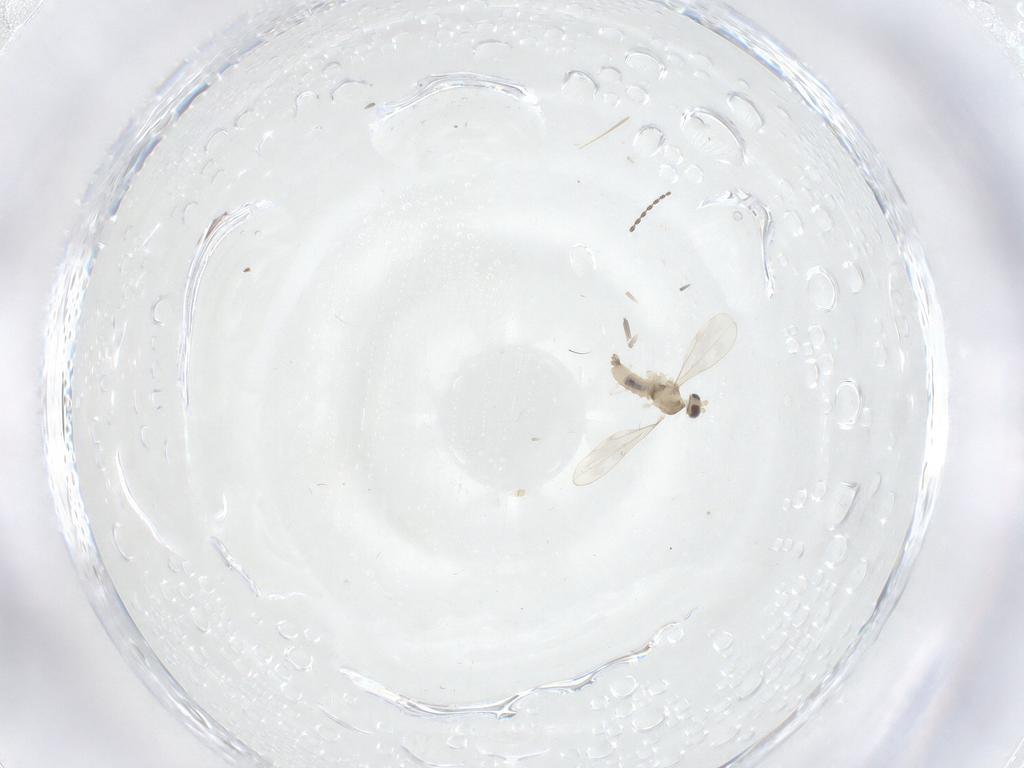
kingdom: Animalia
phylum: Arthropoda
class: Insecta
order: Diptera
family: Cecidomyiidae
